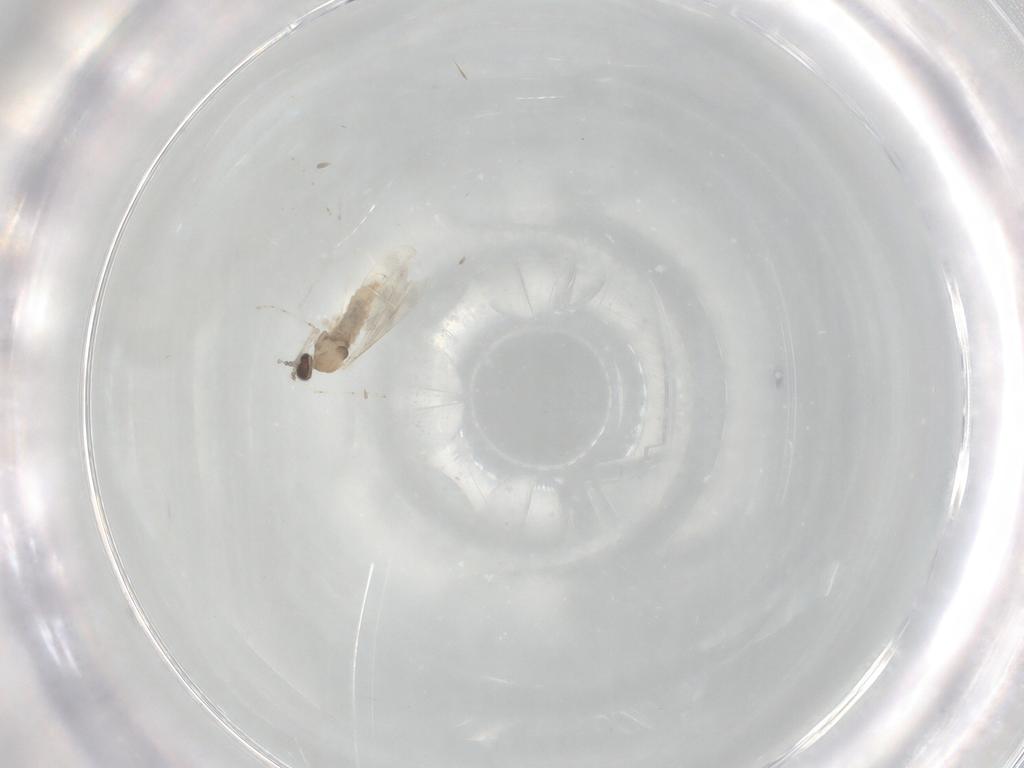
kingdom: Animalia
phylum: Arthropoda
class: Insecta
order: Diptera
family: Cecidomyiidae
